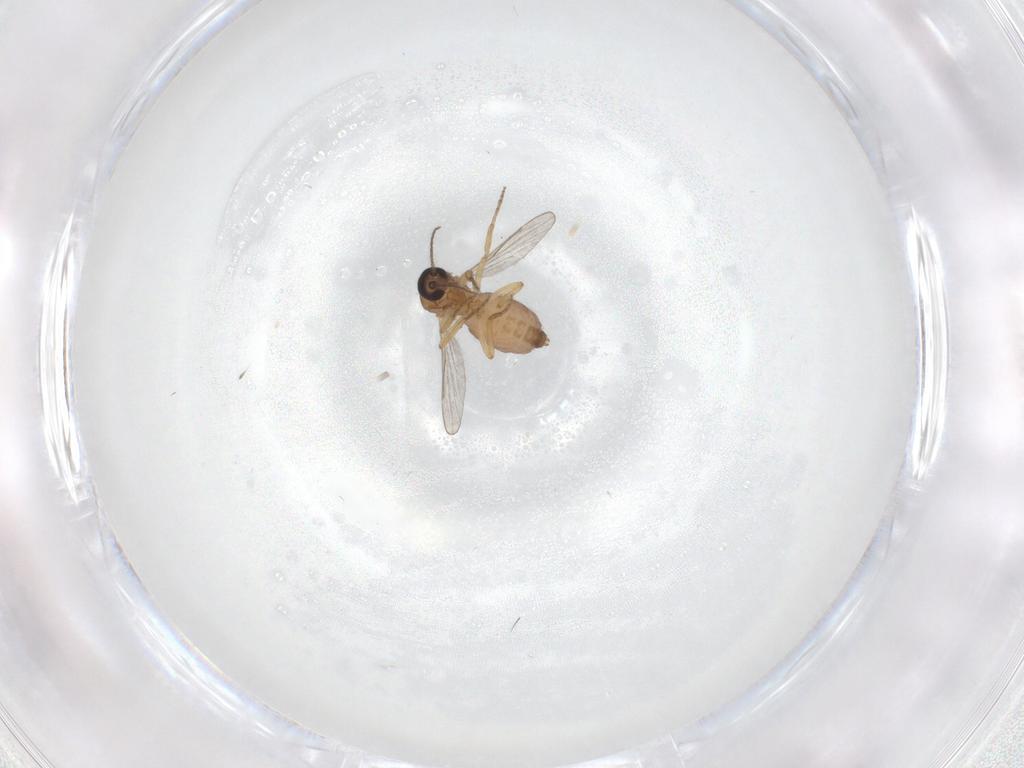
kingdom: Animalia
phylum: Arthropoda
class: Insecta
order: Diptera
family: Ceratopogonidae
